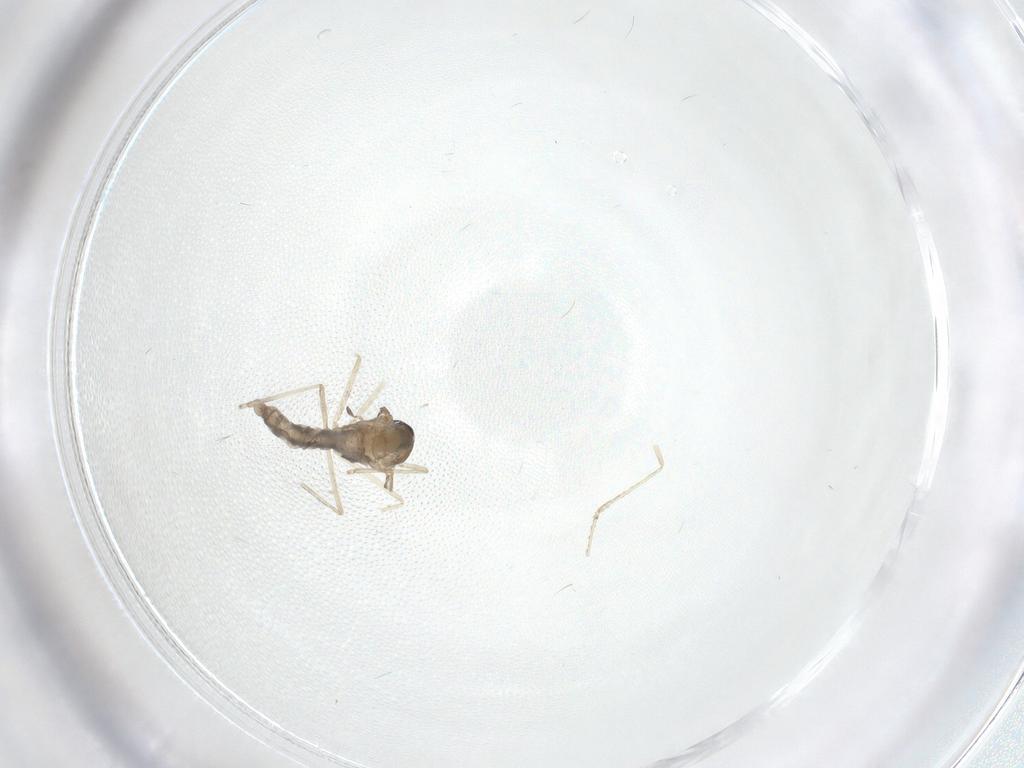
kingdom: Animalia
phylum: Arthropoda
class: Insecta
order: Diptera
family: Cecidomyiidae
